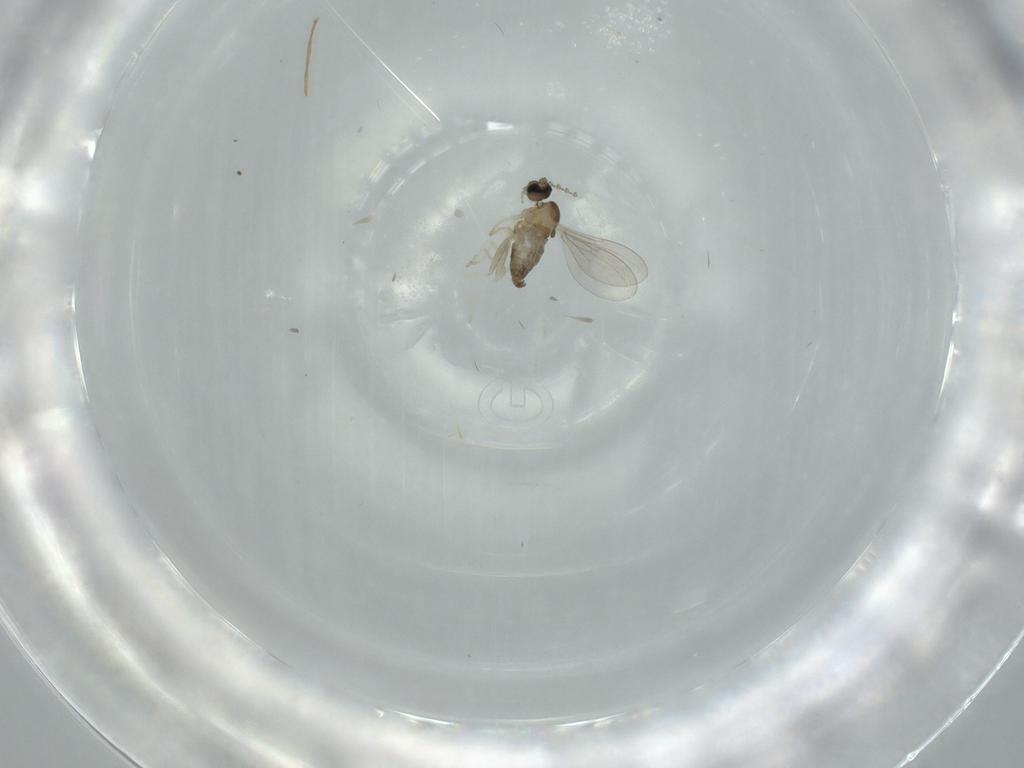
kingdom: Animalia
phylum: Arthropoda
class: Insecta
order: Diptera
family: Cecidomyiidae
